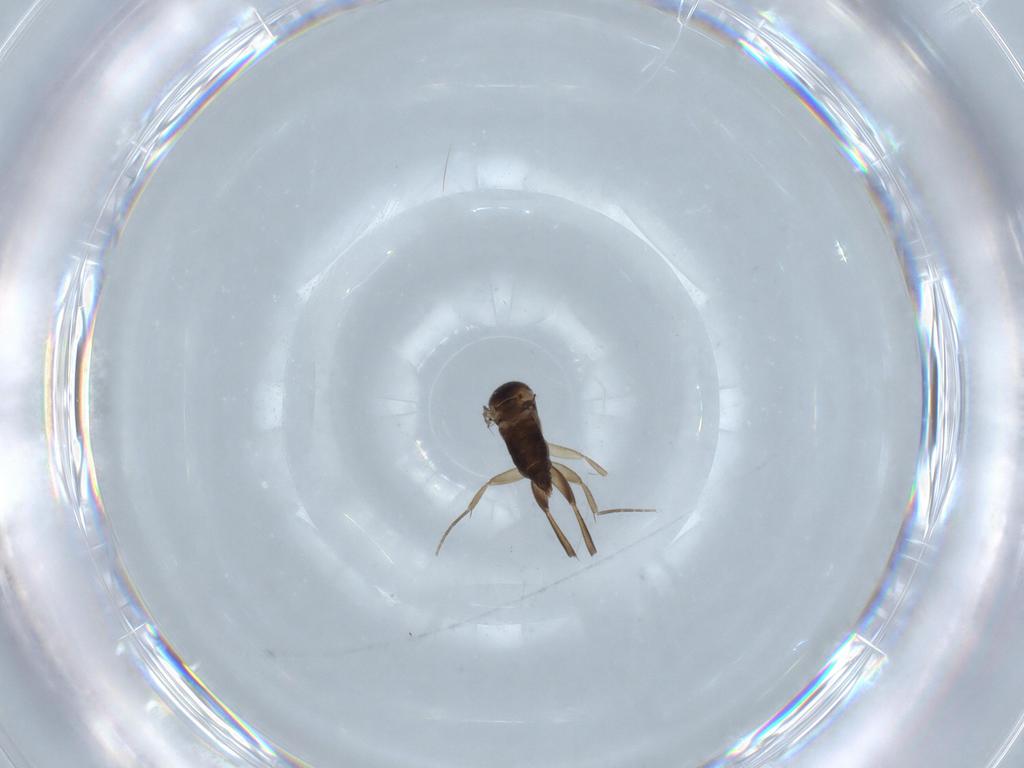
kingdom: Animalia
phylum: Arthropoda
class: Insecta
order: Diptera
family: Phoridae
